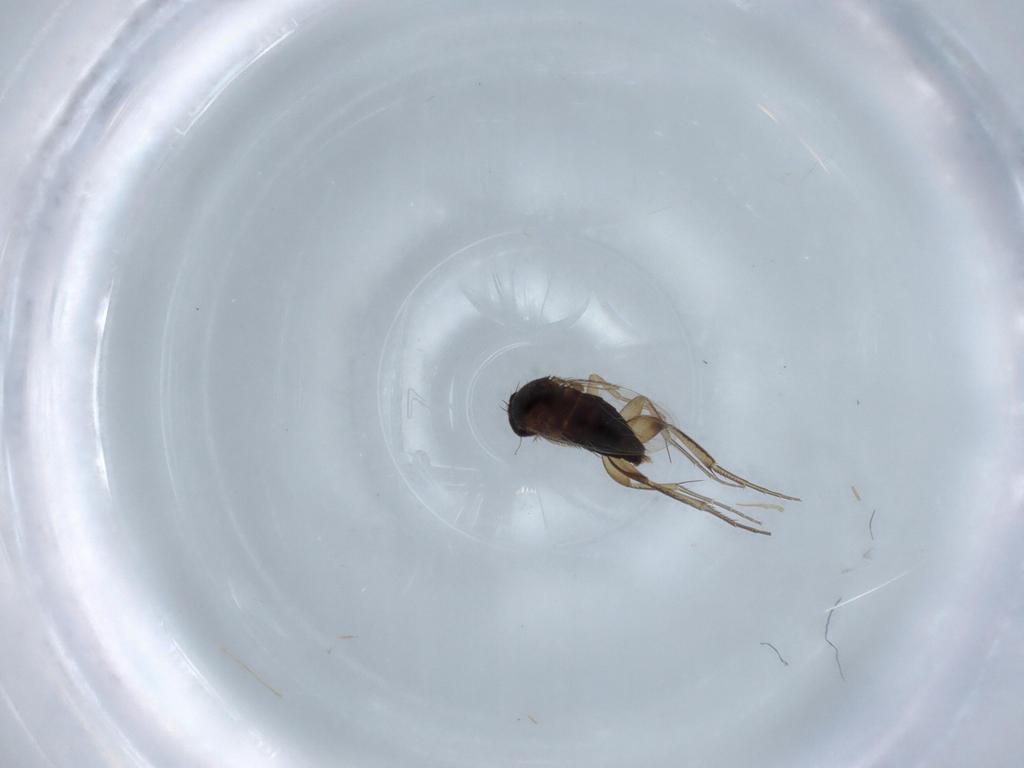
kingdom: Animalia
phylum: Arthropoda
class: Insecta
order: Diptera
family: Phoridae
